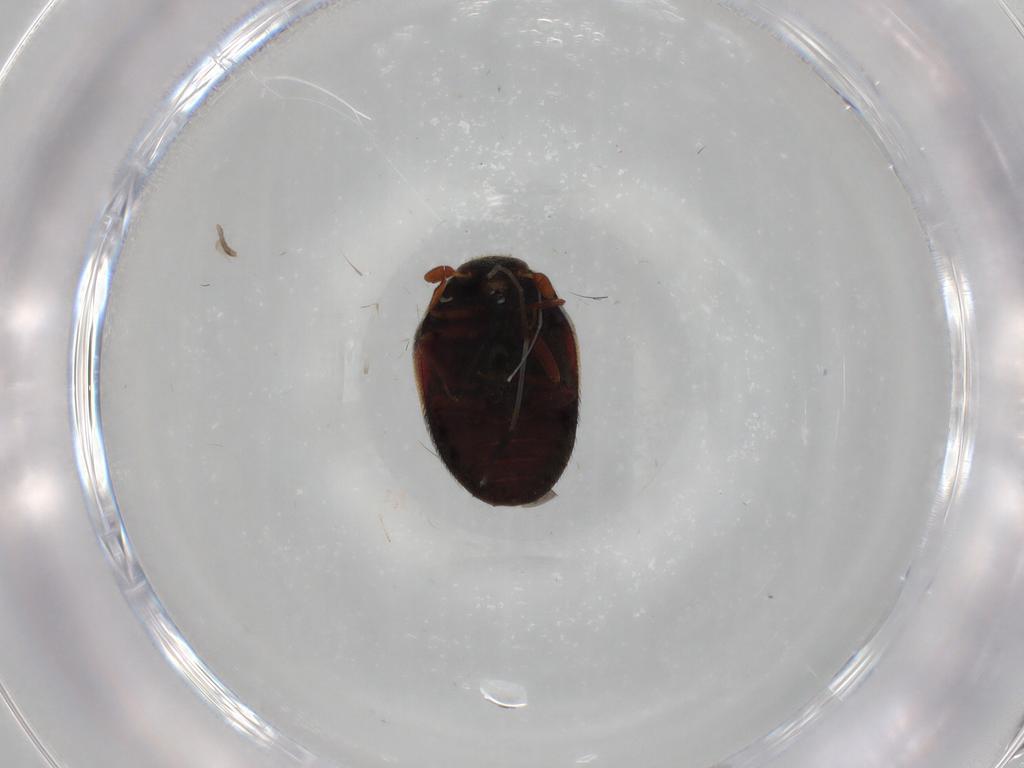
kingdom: Animalia
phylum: Arthropoda
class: Insecta
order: Coleoptera
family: Dermestidae
